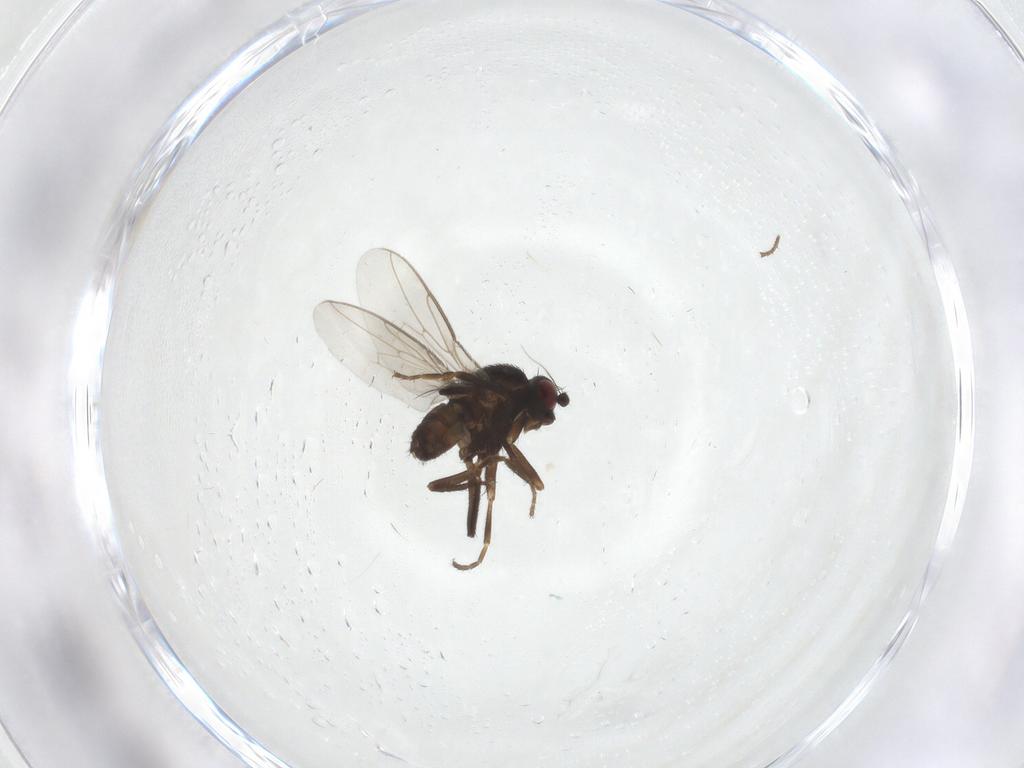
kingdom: Animalia
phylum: Arthropoda
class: Insecta
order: Diptera
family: Sphaeroceridae
